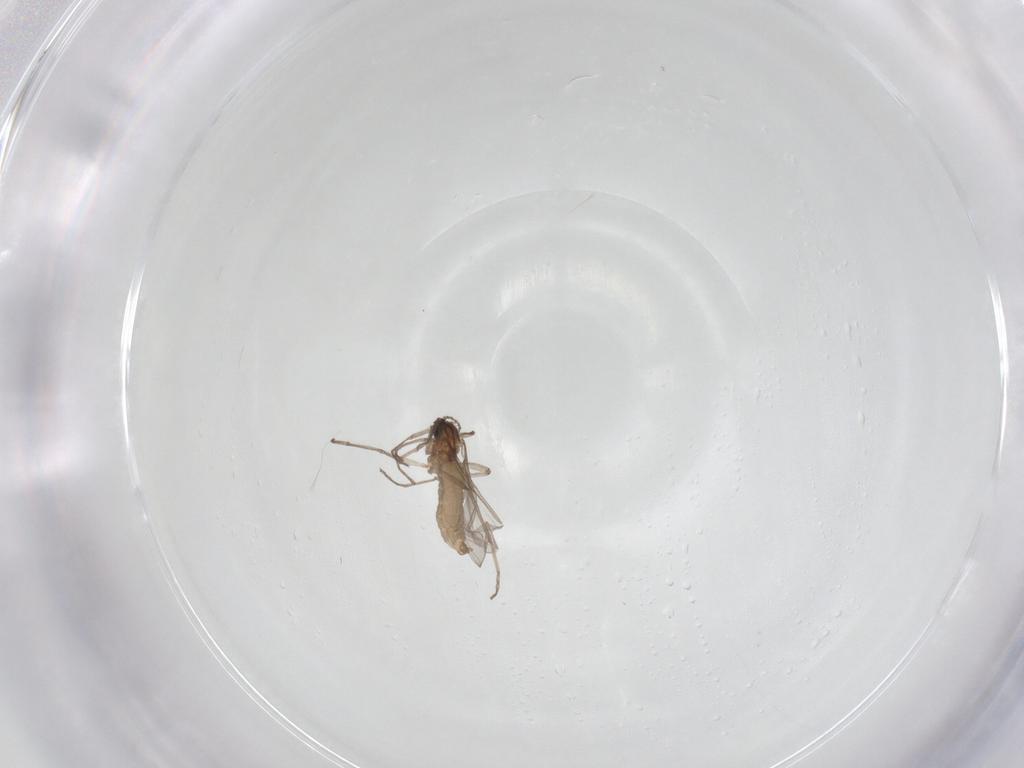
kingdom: Animalia
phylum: Arthropoda
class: Insecta
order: Diptera
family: Cecidomyiidae
